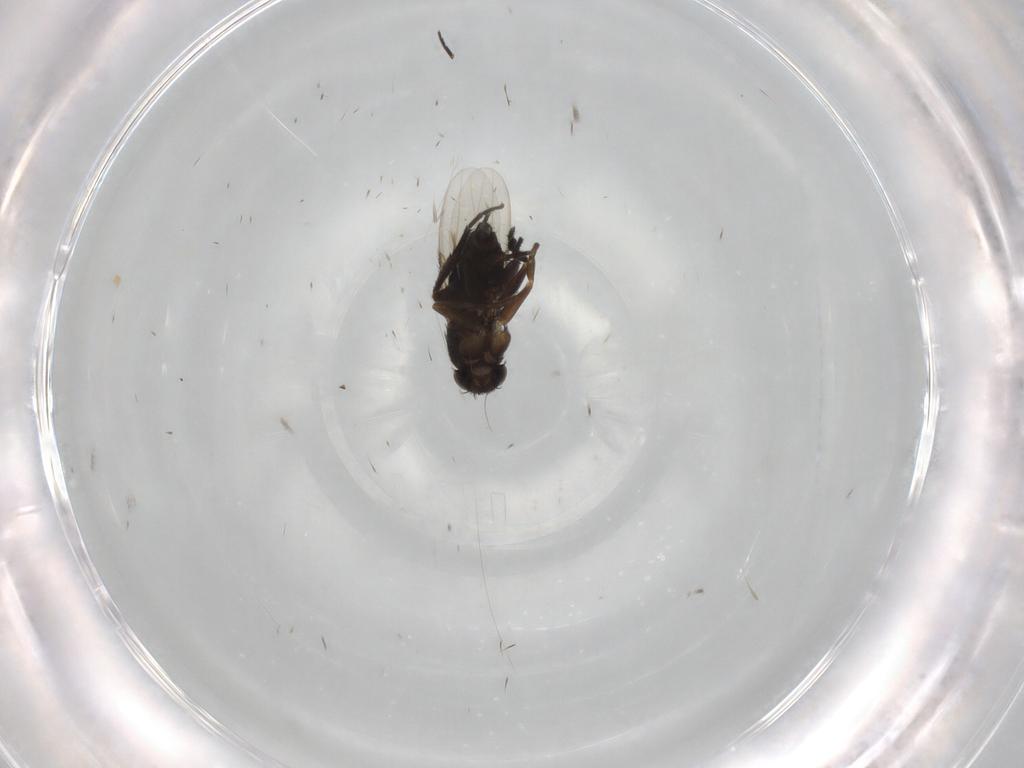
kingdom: Animalia
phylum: Arthropoda
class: Insecta
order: Diptera
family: Phoridae
